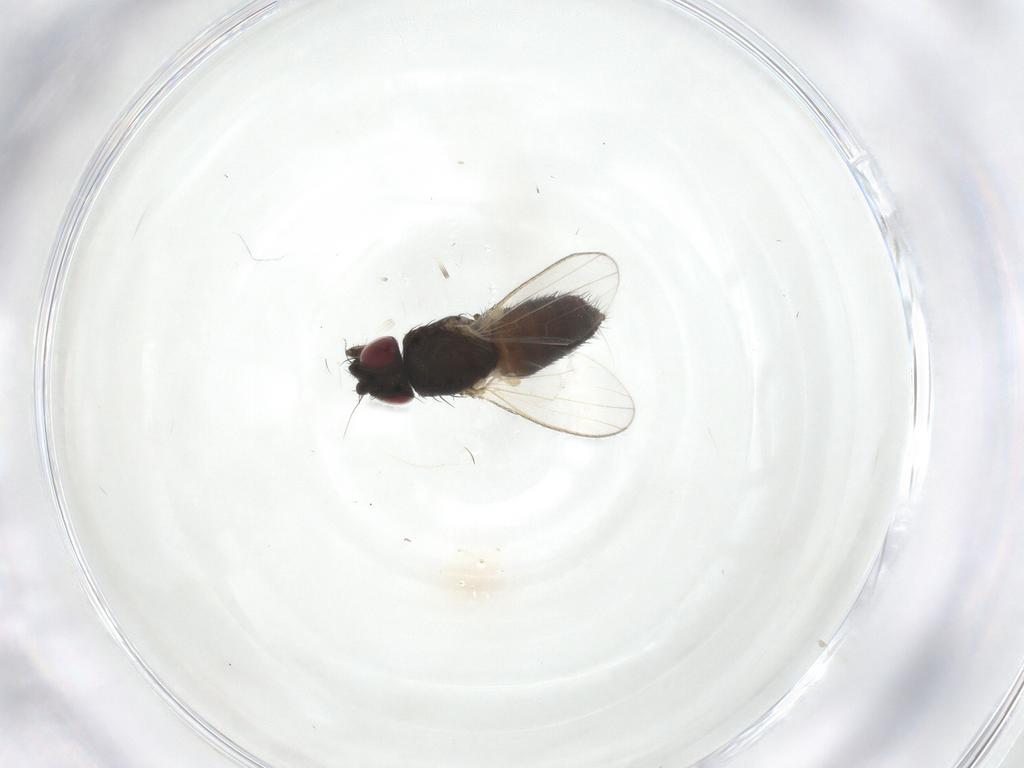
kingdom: Animalia
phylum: Arthropoda
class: Insecta
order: Diptera
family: Milichiidae
